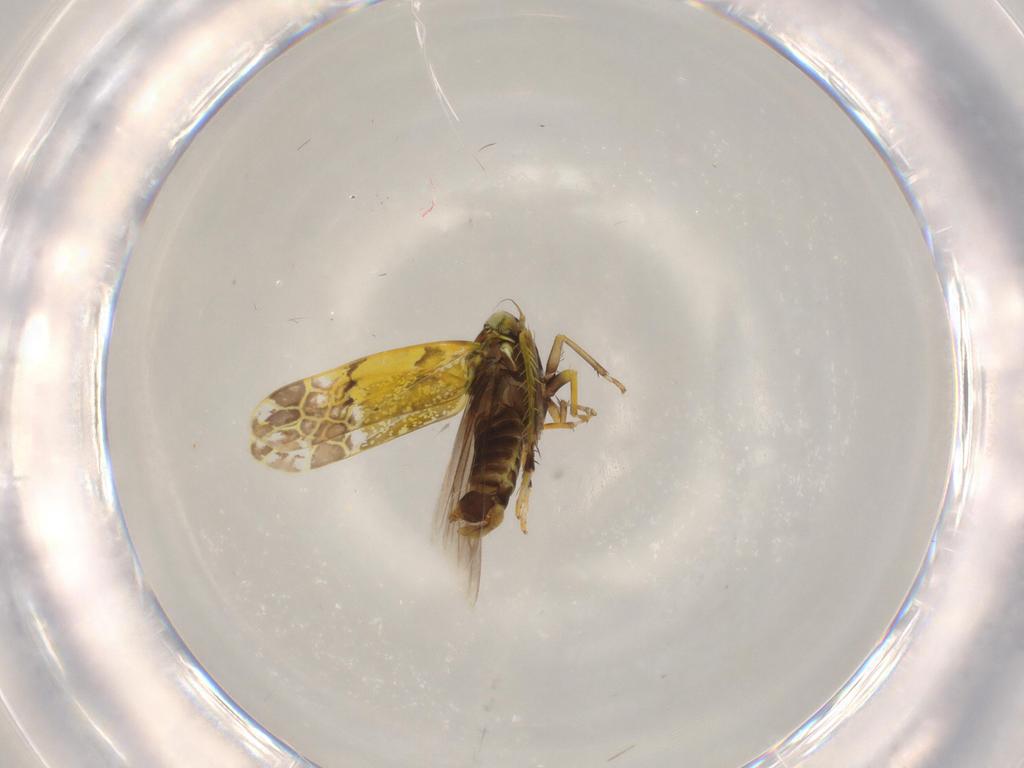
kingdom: Animalia
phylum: Arthropoda
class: Insecta
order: Hemiptera
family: Cicadellidae
